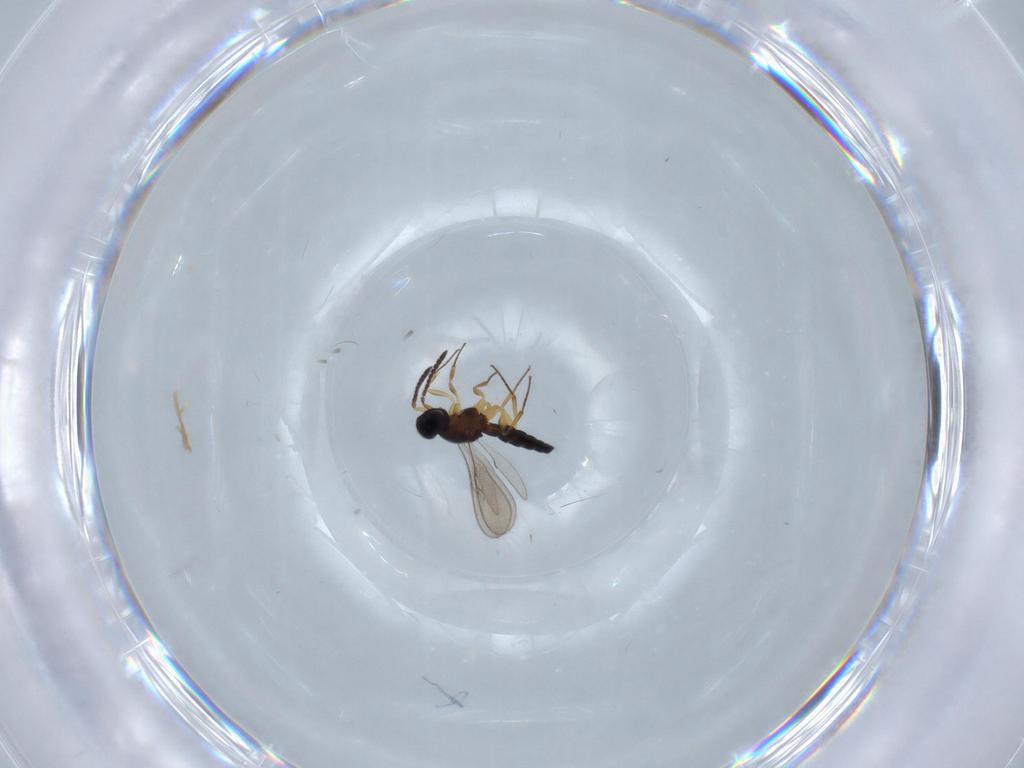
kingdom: Animalia
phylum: Arthropoda
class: Insecta
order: Hymenoptera
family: Scelionidae
